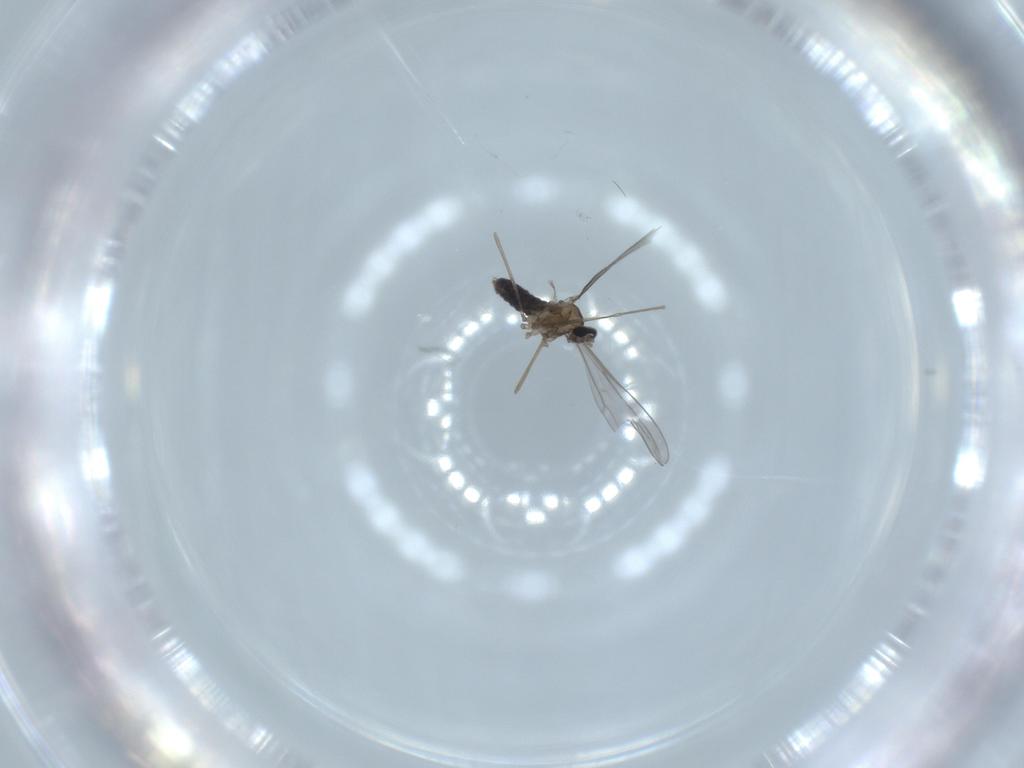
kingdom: Animalia
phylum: Arthropoda
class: Insecta
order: Diptera
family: Cecidomyiidae
